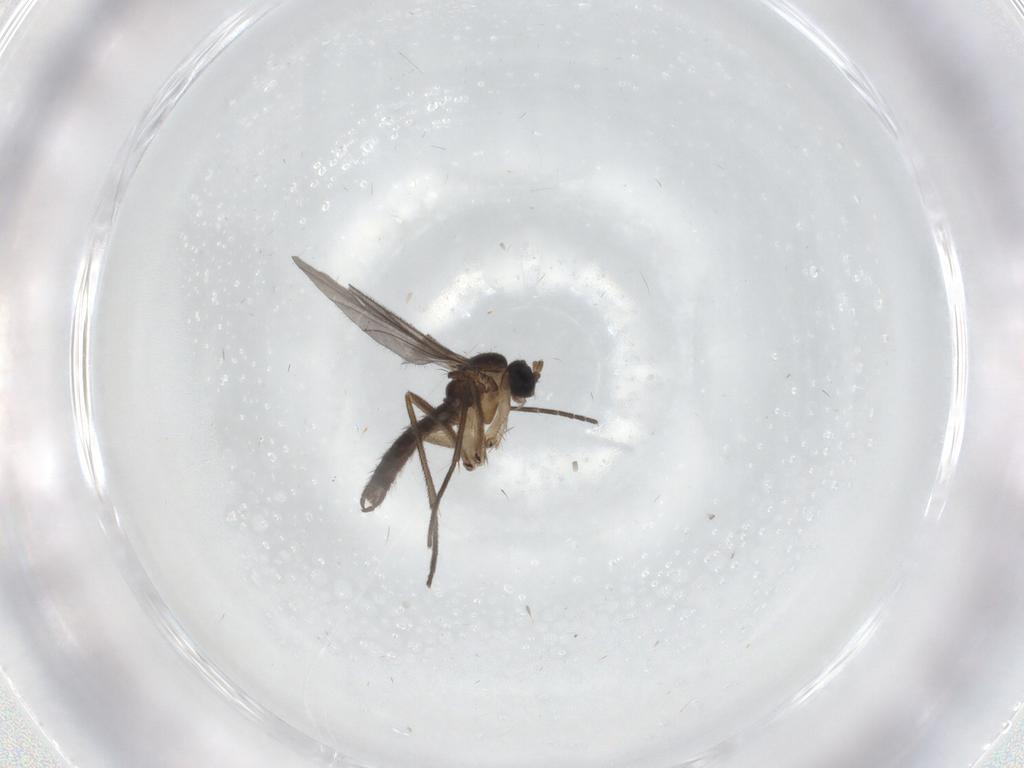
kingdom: Animalia
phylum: Arthropoda
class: Insecta
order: Diptera
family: Sciaridae
